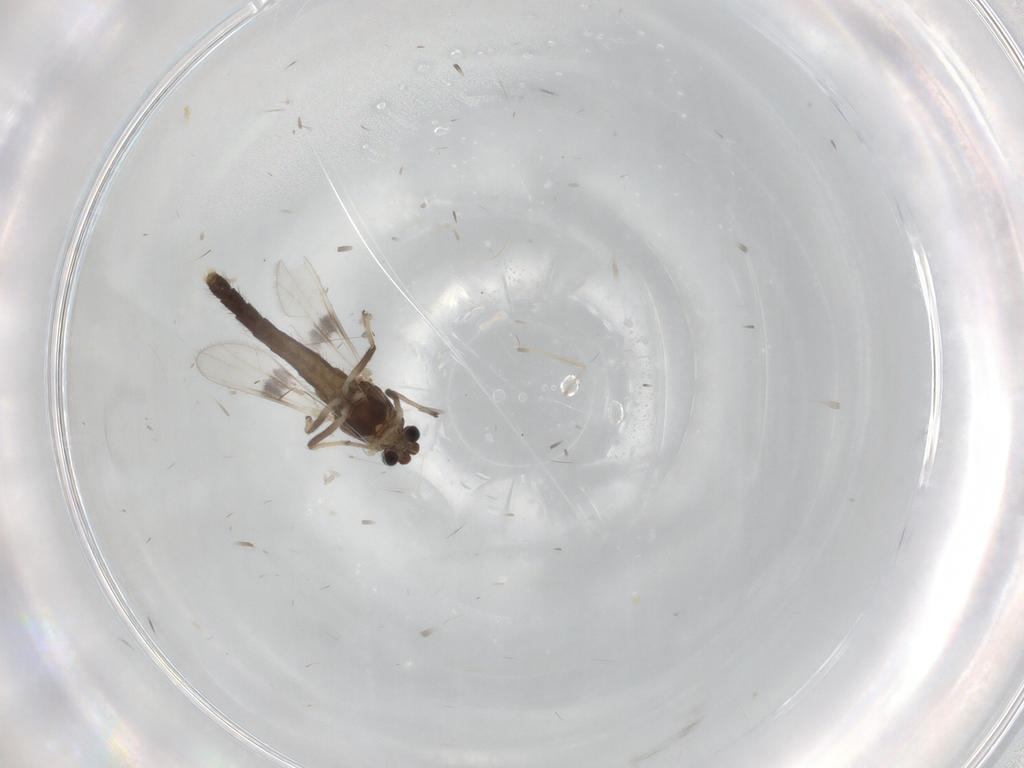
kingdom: Animalia
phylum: Arthropoda
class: Insecta
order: Diptera
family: Chironomidae
